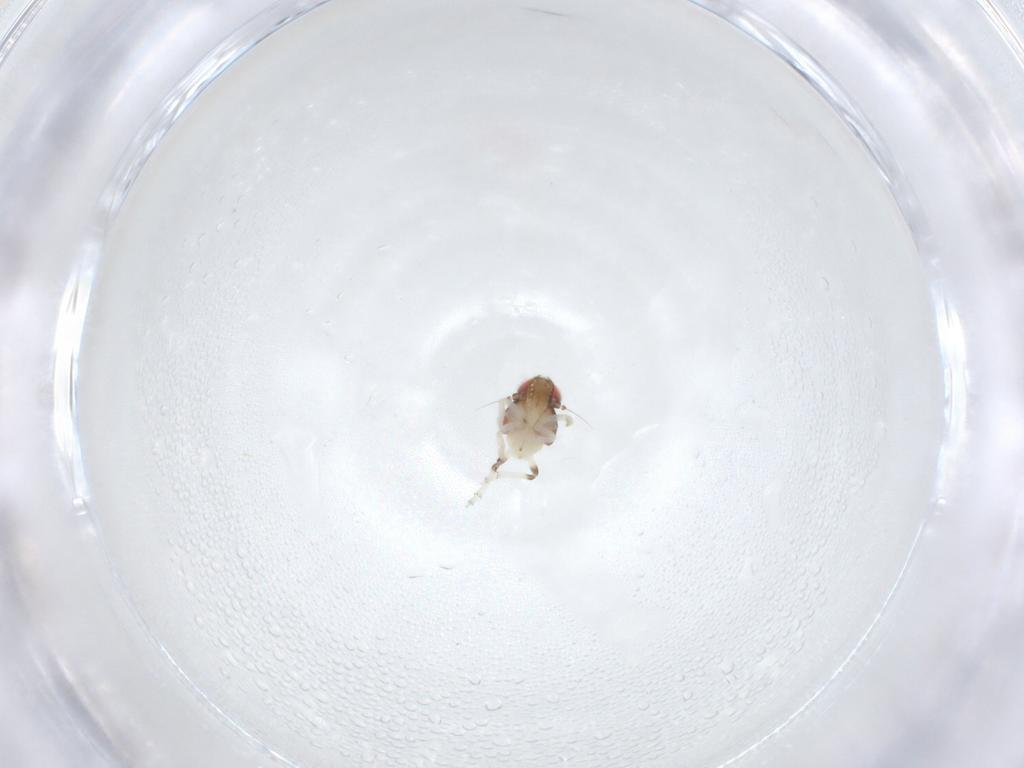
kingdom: Animalia
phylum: Arthropoda
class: Insecta
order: Hemiptera
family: Nogodinidae
